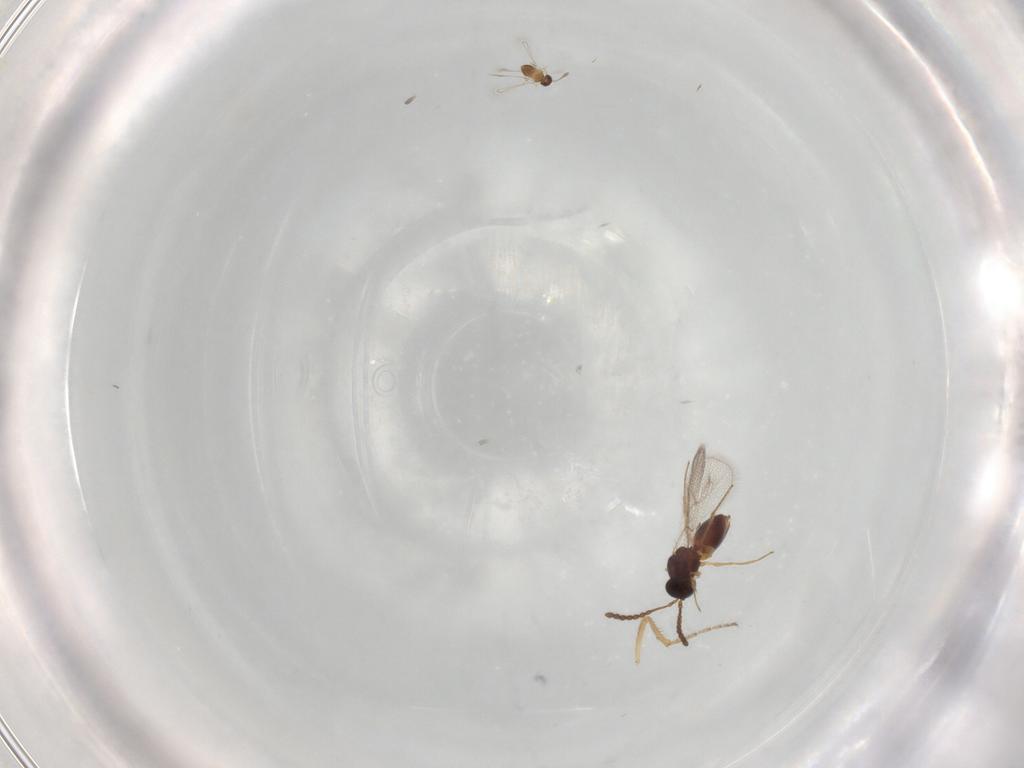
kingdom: Animalia
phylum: Arthropoda
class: Insecta
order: Hymenoptera
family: Figitidae
